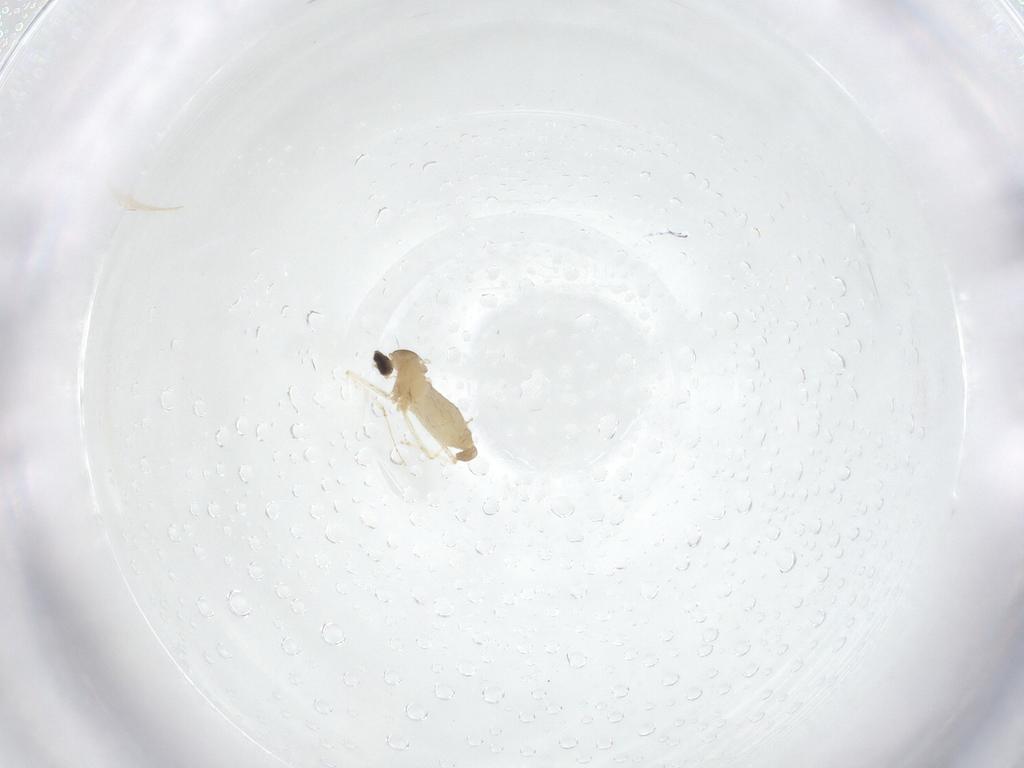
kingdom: Animalia
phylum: Arthropoda
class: Insecta
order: Diptera
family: Cecidomyiidae
